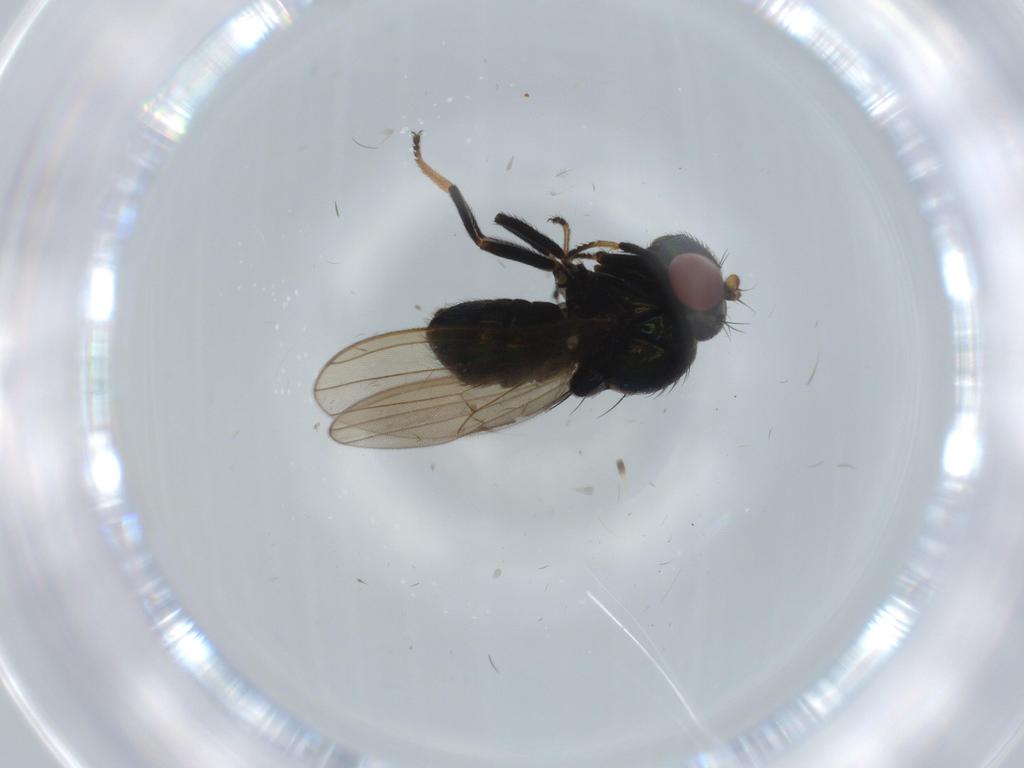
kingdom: Animalia
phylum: Arthropoda
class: Insecta
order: Diptera
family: Ephydridae
